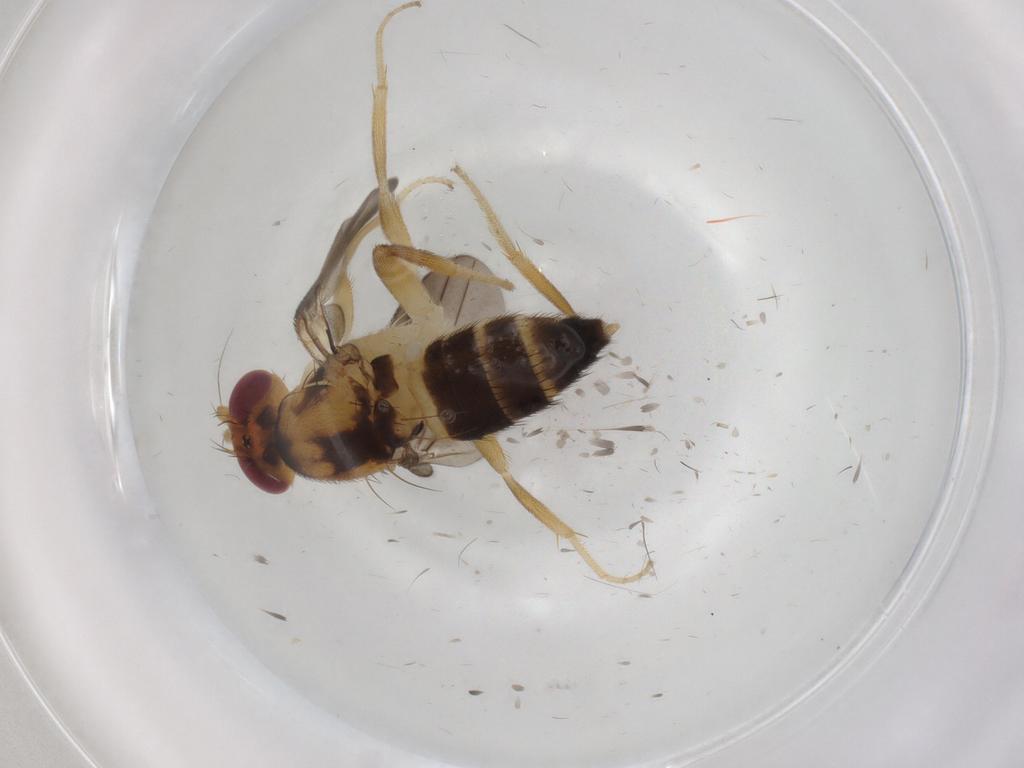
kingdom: Animalia
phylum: Arthropoda
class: Insecta
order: Diptera
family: Clusiidae
